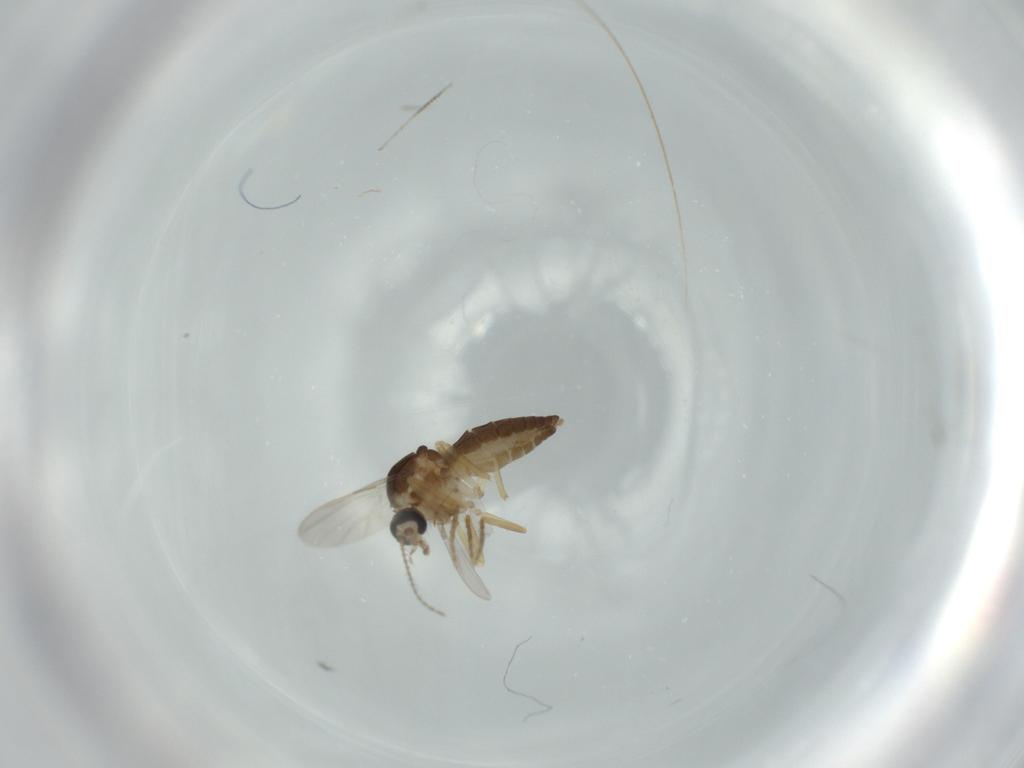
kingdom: Animalia
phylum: Arthropoda
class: Insecta
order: Diptera
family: Ceratopogonidae
